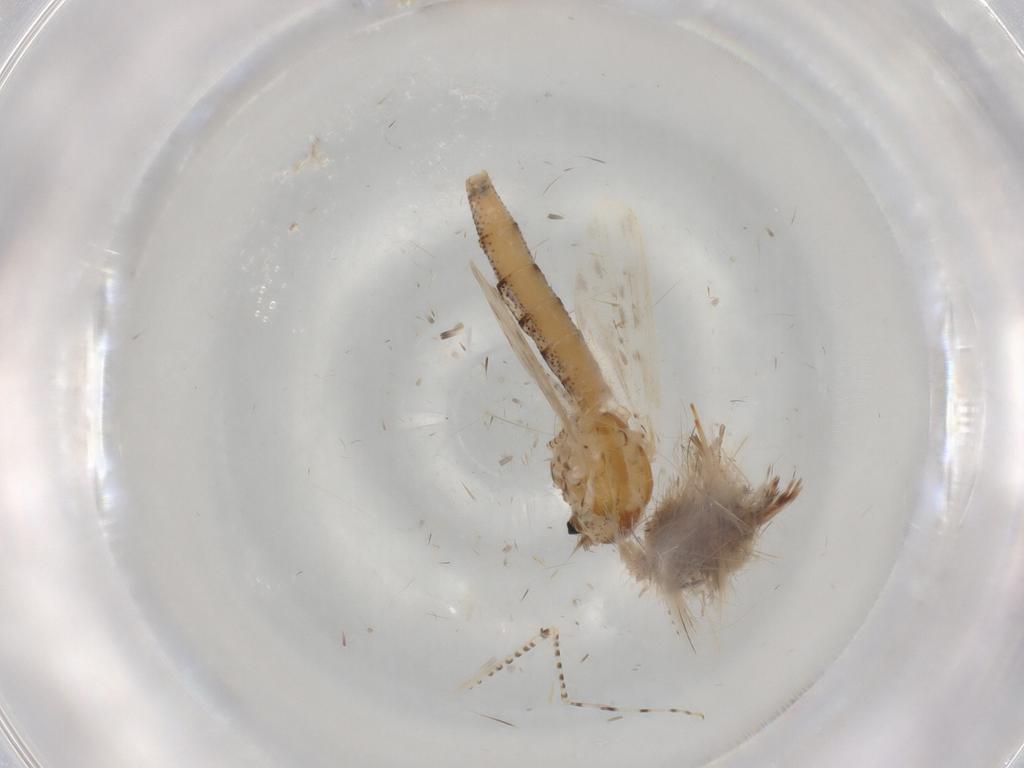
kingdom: Animalia
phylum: Arthropoda
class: Insecta
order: Diptera
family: Chaoboridae
